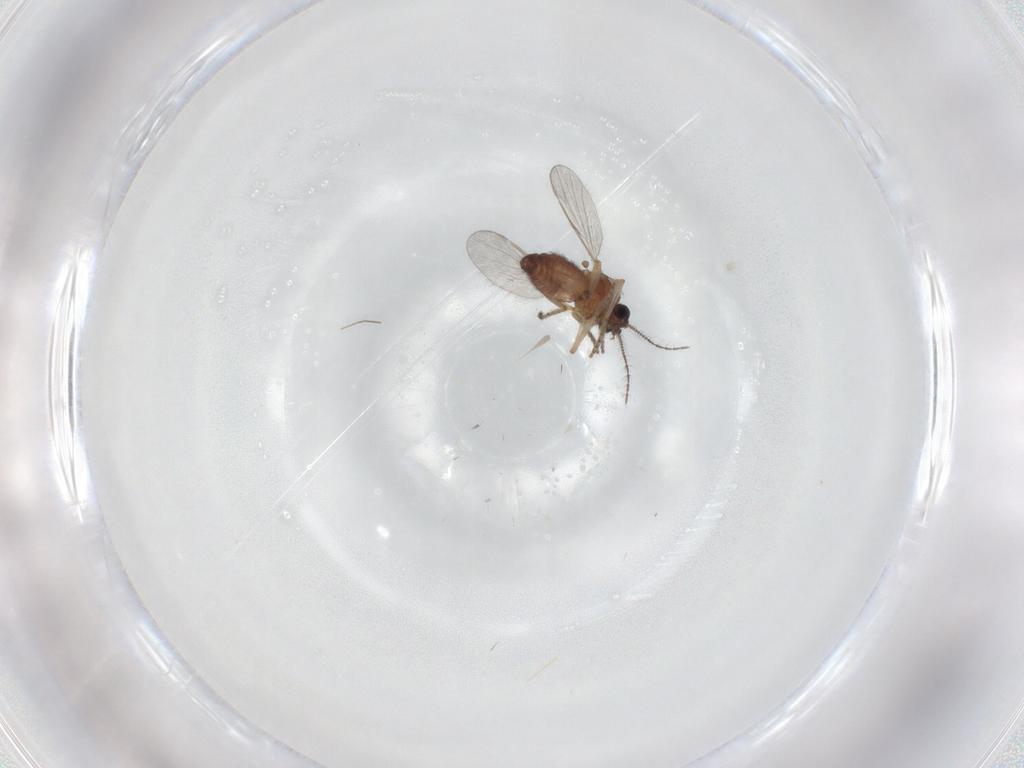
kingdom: Animalia
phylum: Arthropoda
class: Insecta
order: Diptera
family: Ceratopogonidae
